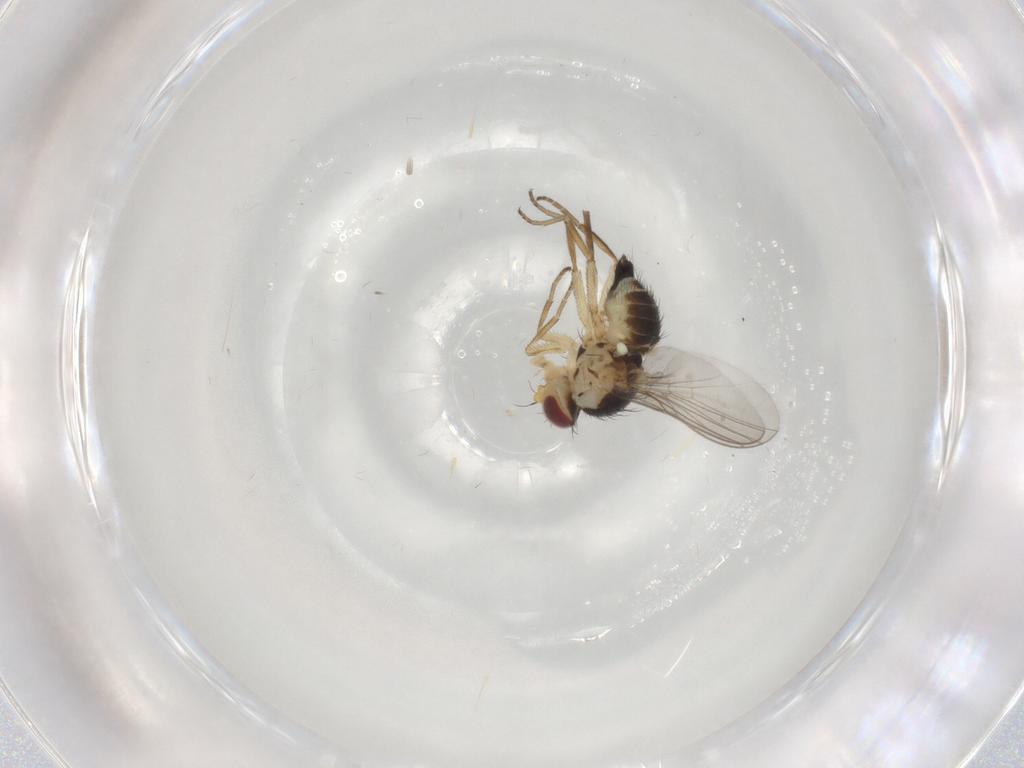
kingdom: Animalia
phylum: Arthropoda
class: Insecta
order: Diptera
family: Agromyzidae
